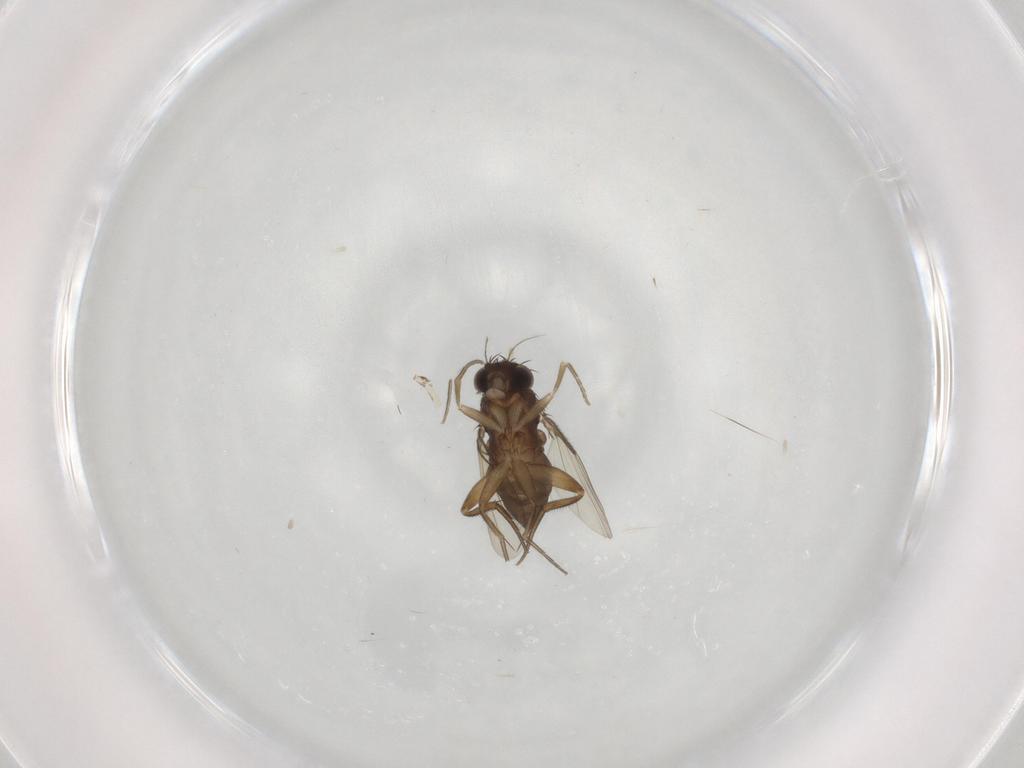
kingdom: Animalia
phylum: Arthropoda
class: Insecta
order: Diptera
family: Phoridae
